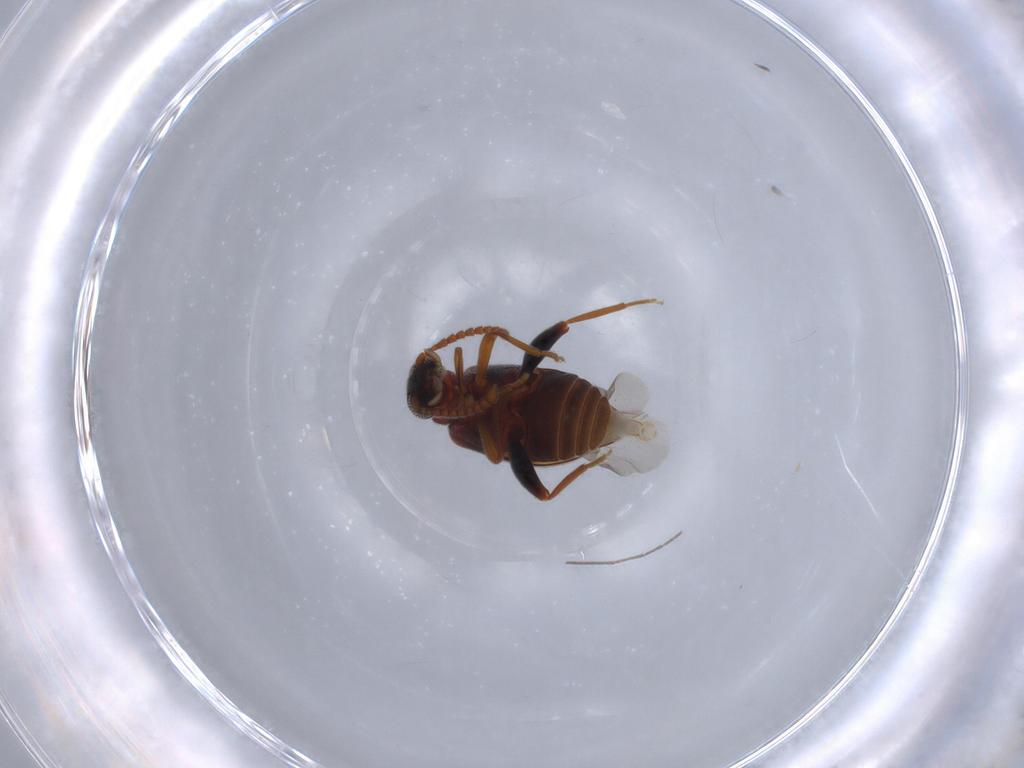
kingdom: Animalia
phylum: Arthropoda
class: Insecta
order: Coleoptera
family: Aderidae
